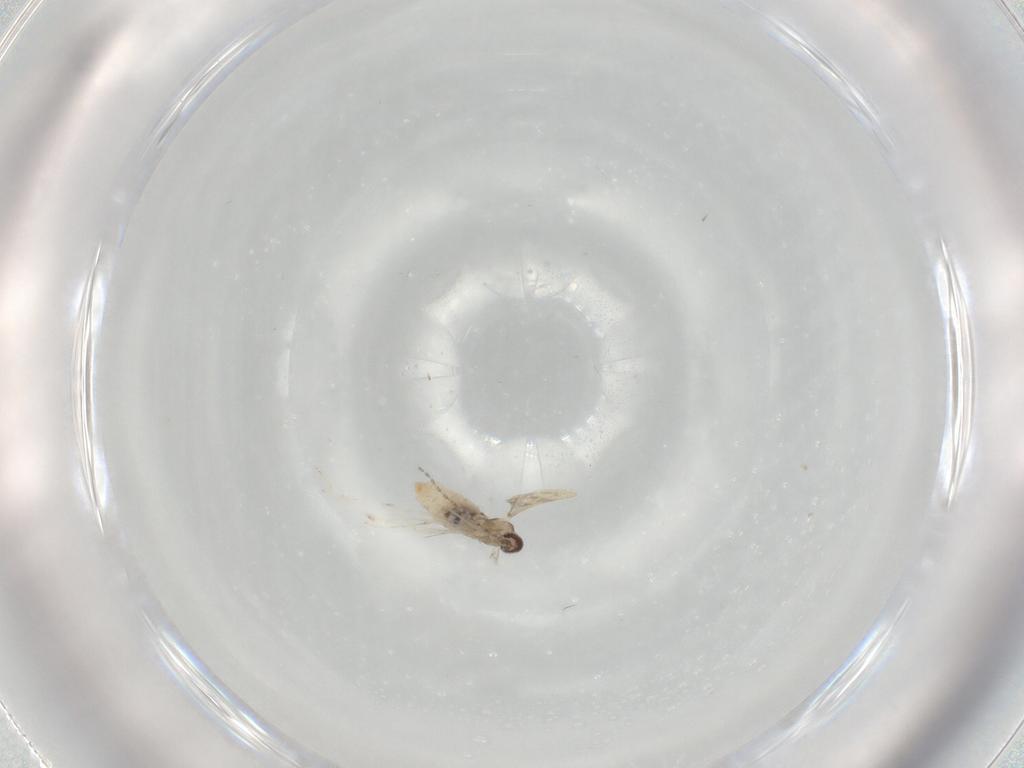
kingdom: Animalia
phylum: Arthropoda
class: Insecta
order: Diptera
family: Cecidomyiidae
